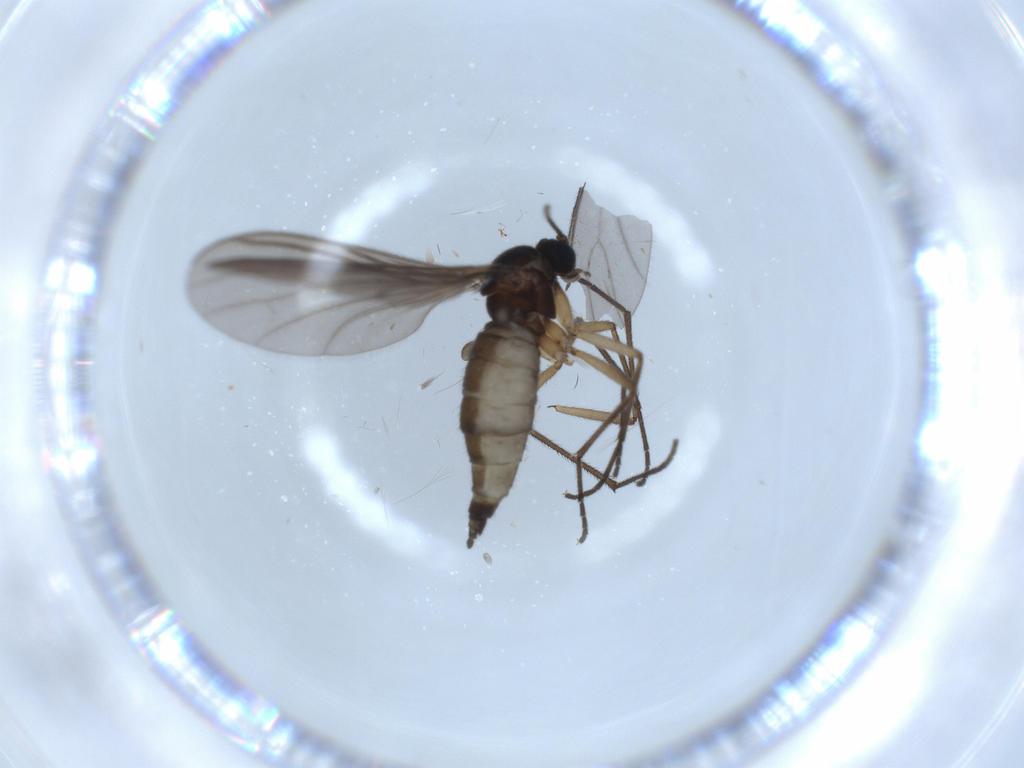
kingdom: Animalia
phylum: Arthropoda
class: Insecta
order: Diptera
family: Sciaridae
